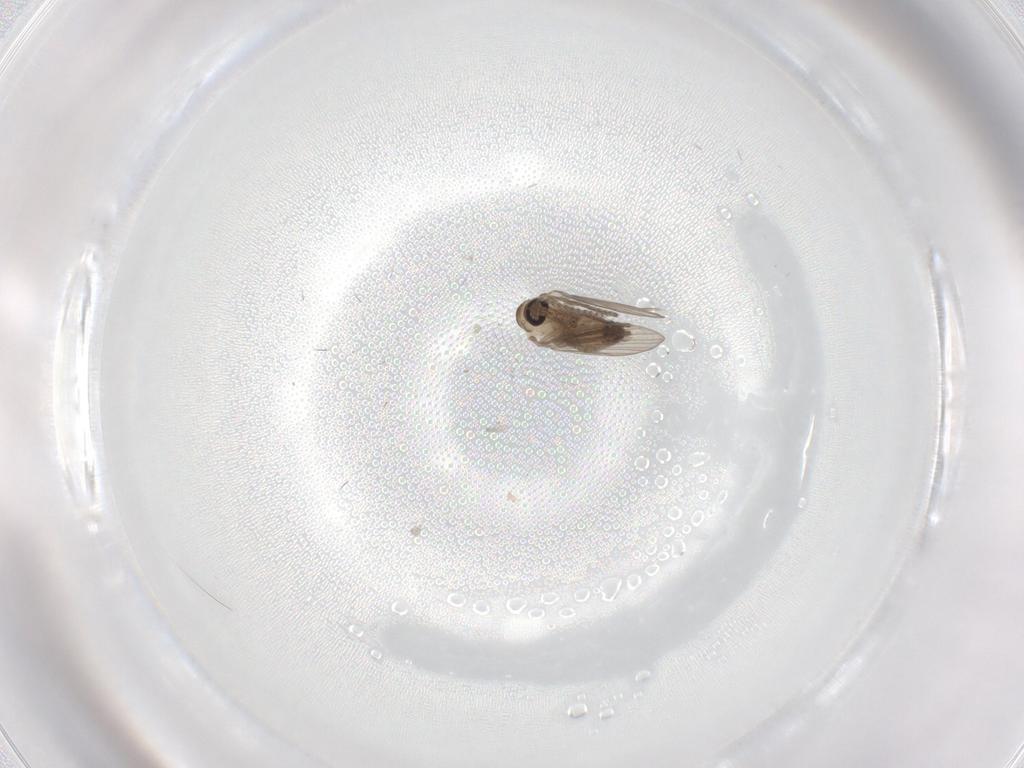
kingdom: Animalia
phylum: Arthropoda
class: Insecta
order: Diptera
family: Psychodidae
